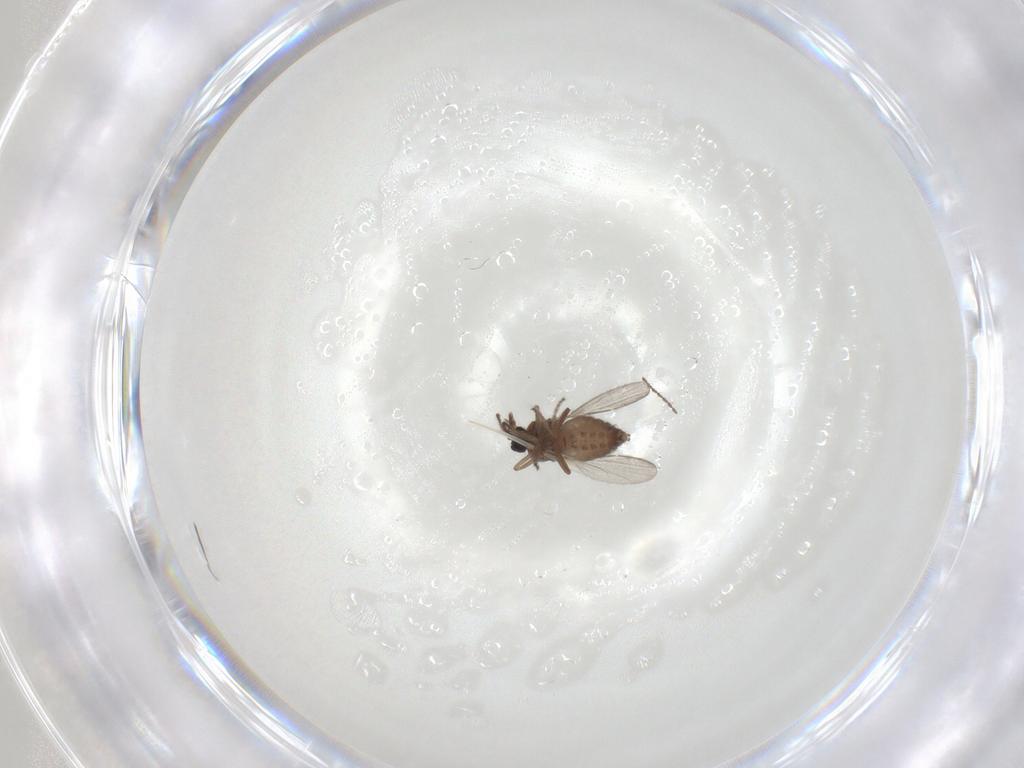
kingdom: Animalia
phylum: Arthropoda
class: Insecta
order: Diptera
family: Ceratopogonidae
